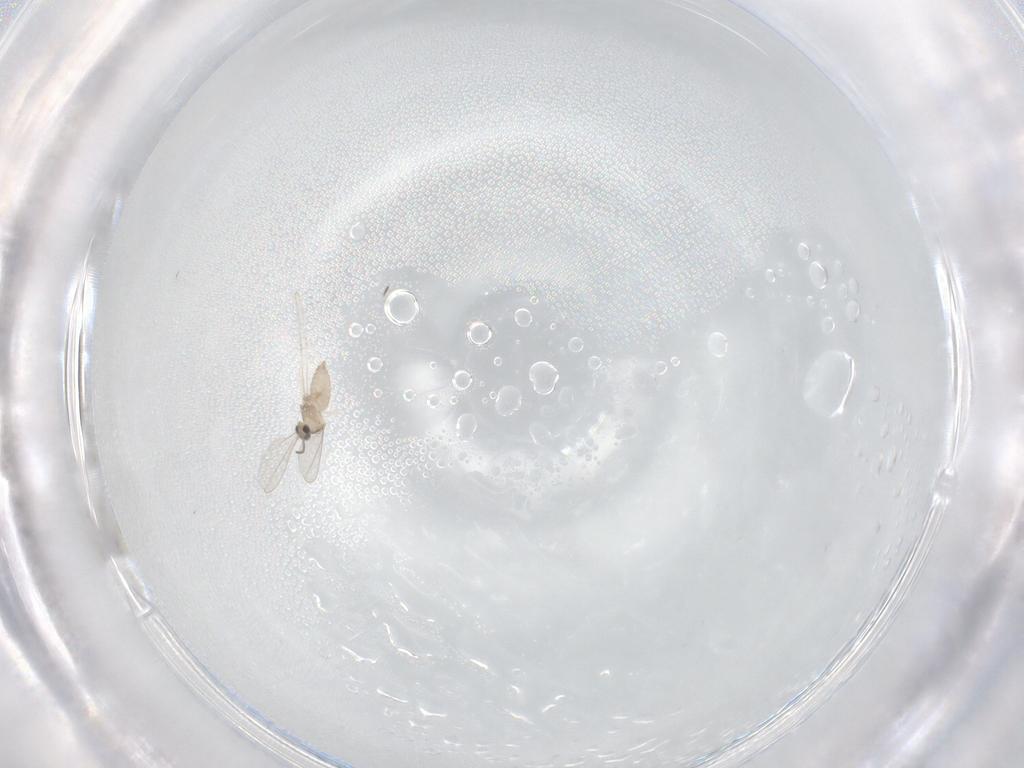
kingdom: Animalia
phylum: Arthropoda
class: Insecta
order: Diptera
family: Cecidomyiidae
